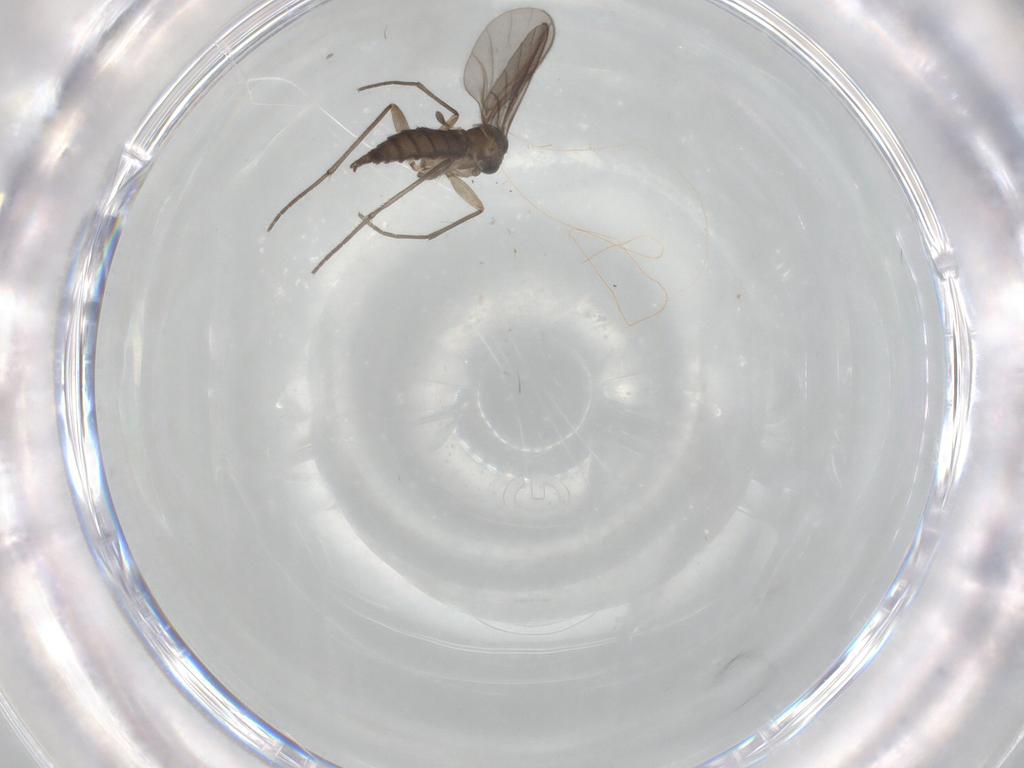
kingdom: Animalia
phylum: Arthropoda
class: Insecta
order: Diptera
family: Sciaridae
